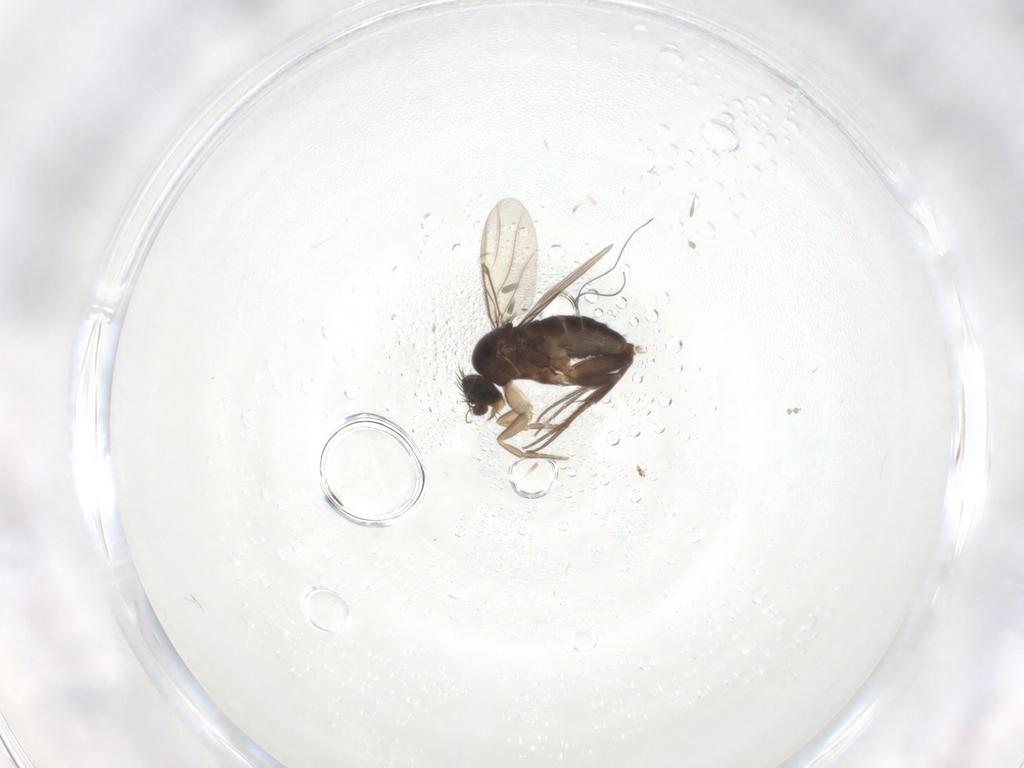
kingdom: Animalia
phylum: Arthropoda
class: Insecta
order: Diptera
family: Phoridae
